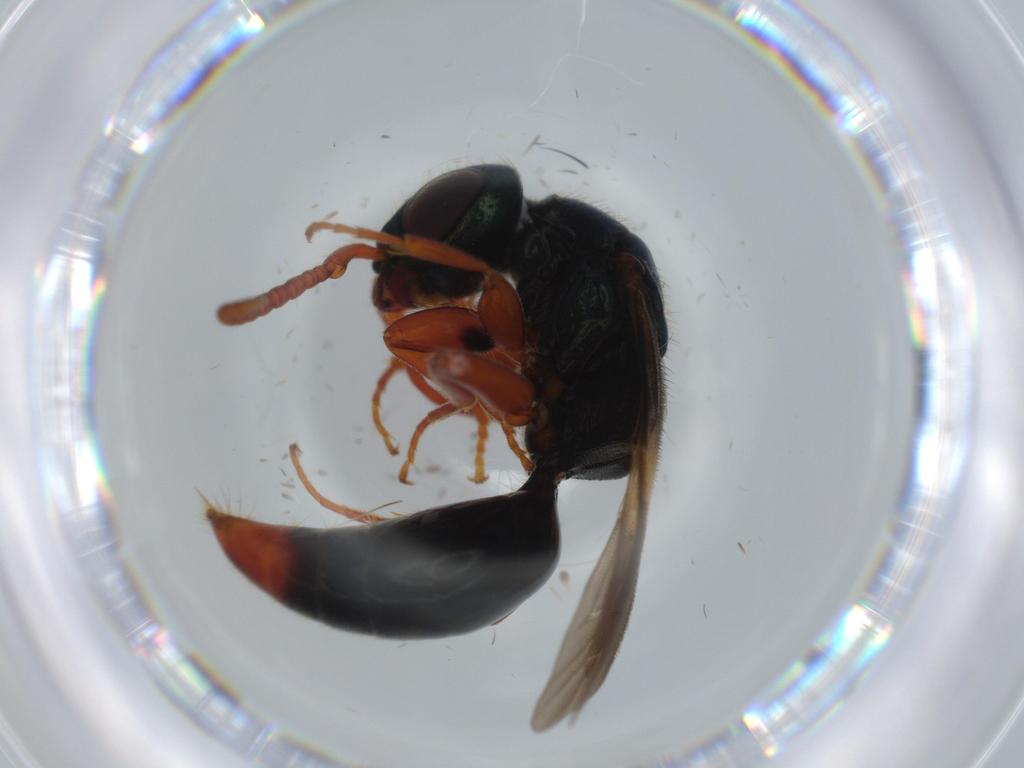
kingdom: Animalia
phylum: Arthropoda
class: Insecta
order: Hymenoptera
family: Bethylidae
